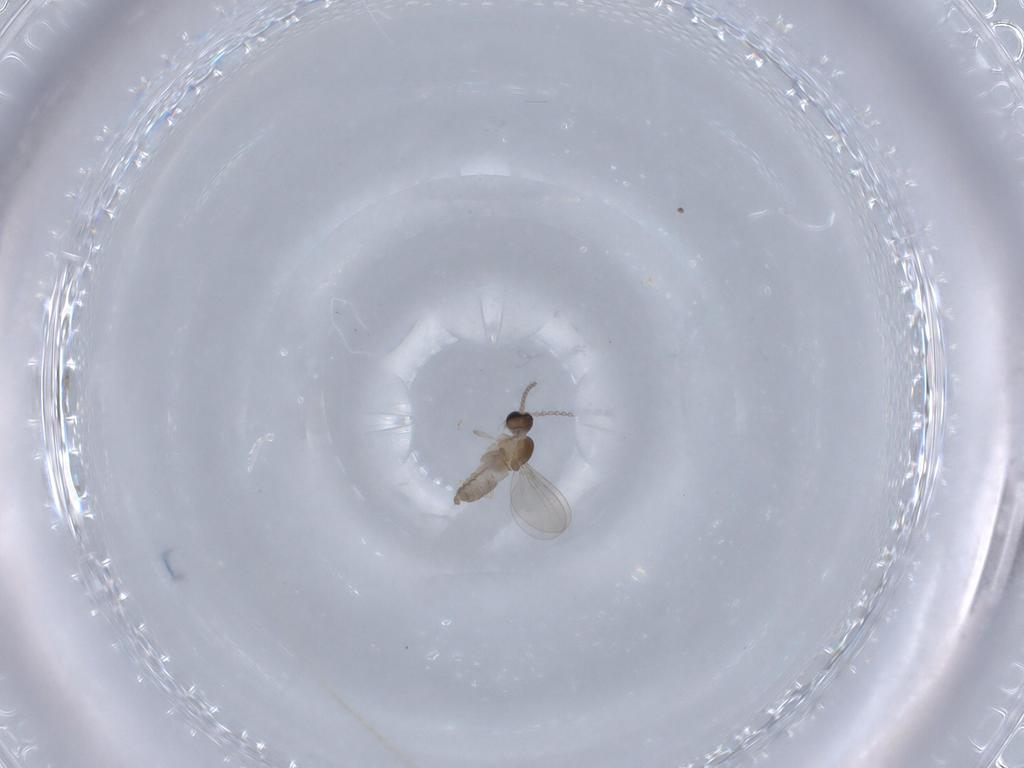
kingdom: Animalia
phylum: Arthropoda
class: Insecta
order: Diptera
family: Cecidomyiidae
